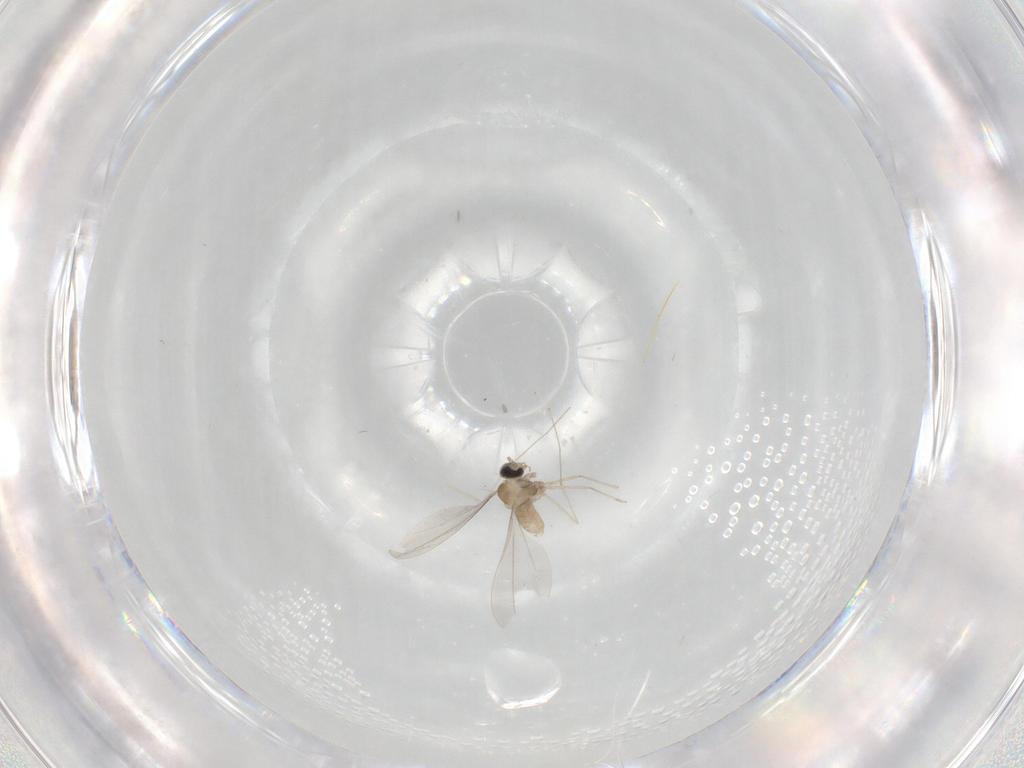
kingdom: Animalia
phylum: Arthropoda
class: Insecta
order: Diptera
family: Cecidomyiidae
